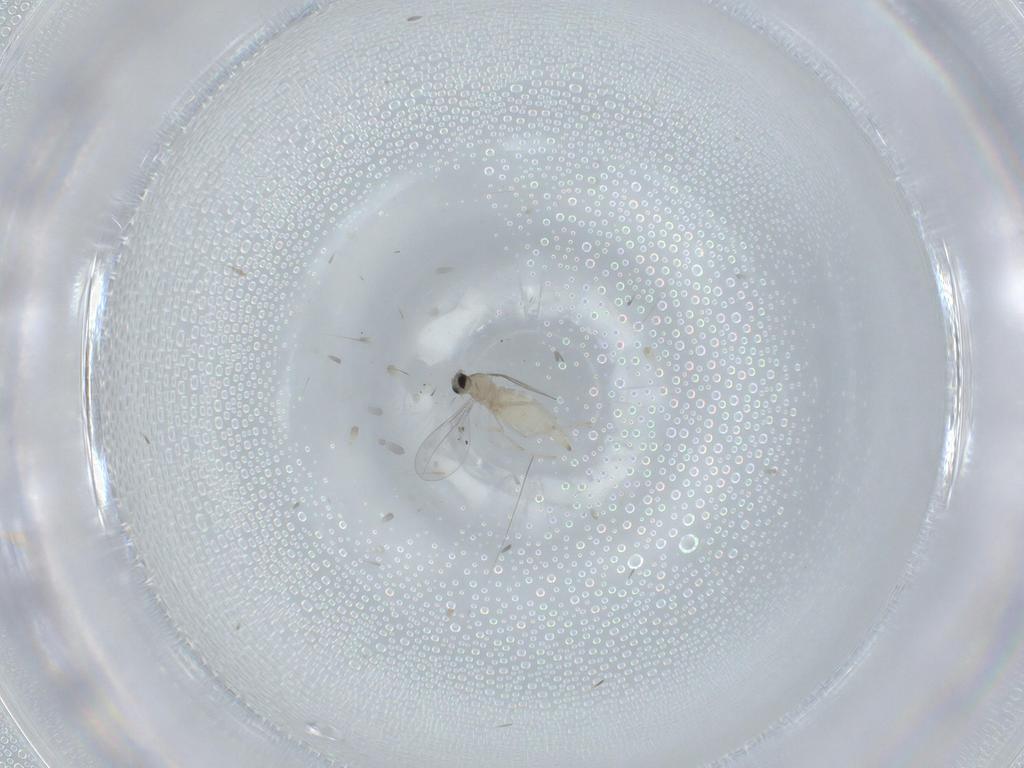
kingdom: Animalia
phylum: Arthropoda
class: Insecta
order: Diptera
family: Cecidomyiidae
